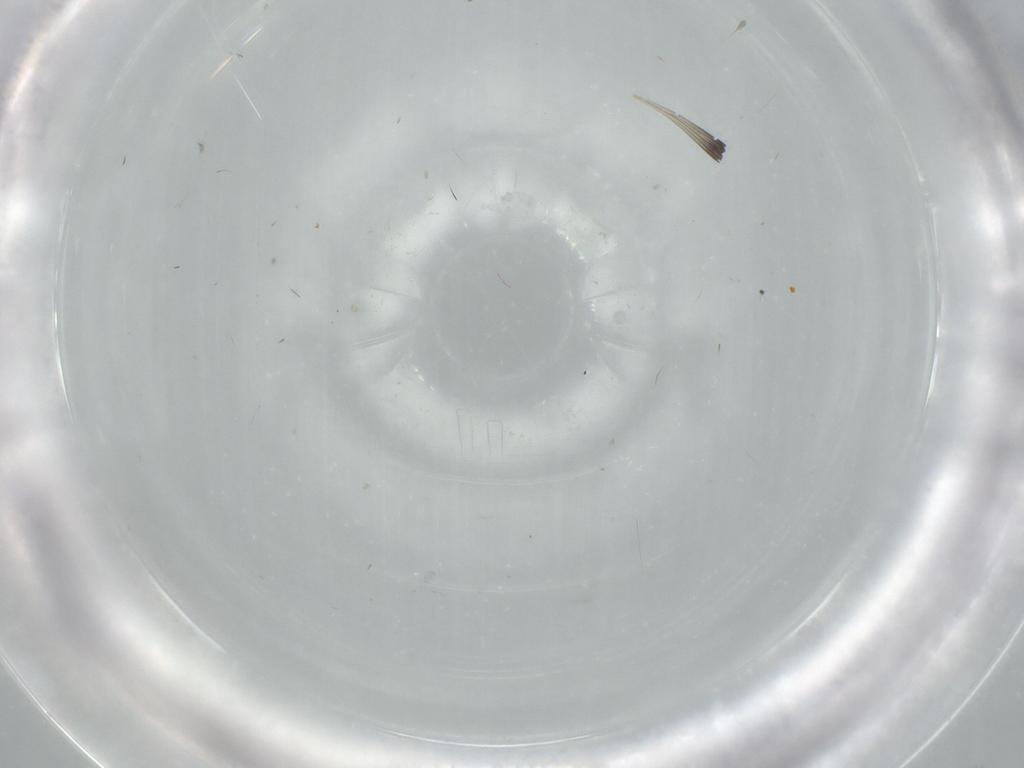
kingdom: Animalia
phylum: Arthropoda
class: Insecta
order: Psocodea
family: Myopsocidae
